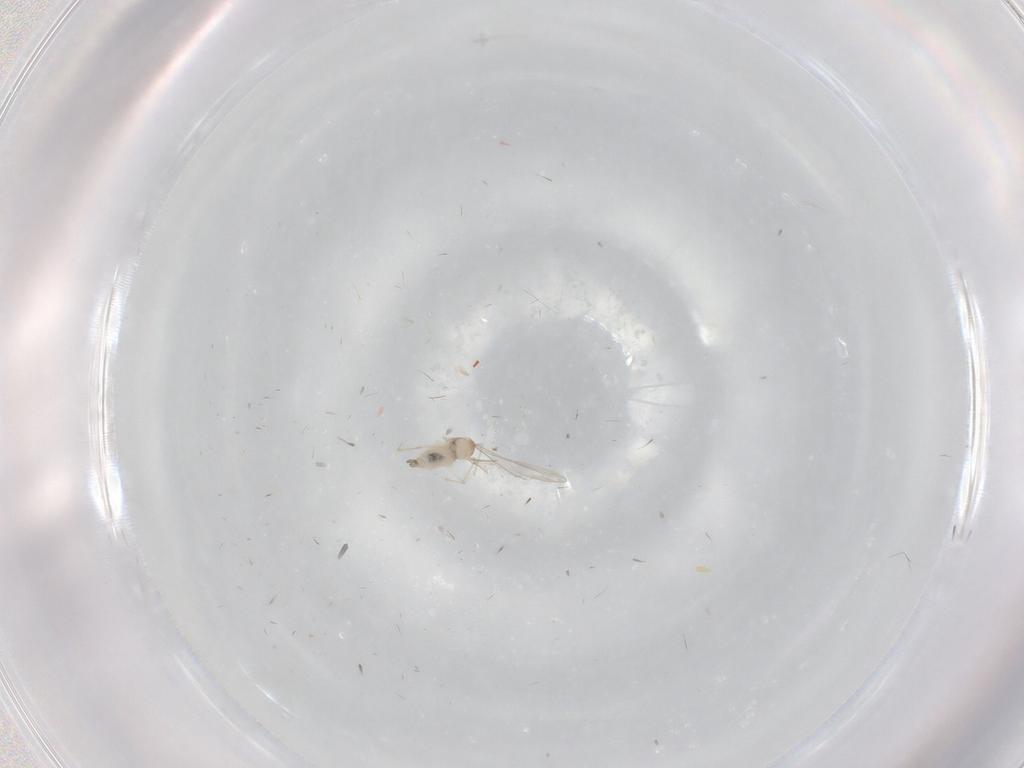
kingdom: Animalia
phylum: Arthropoda
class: Insecta
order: Diptera
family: Limoniidae
